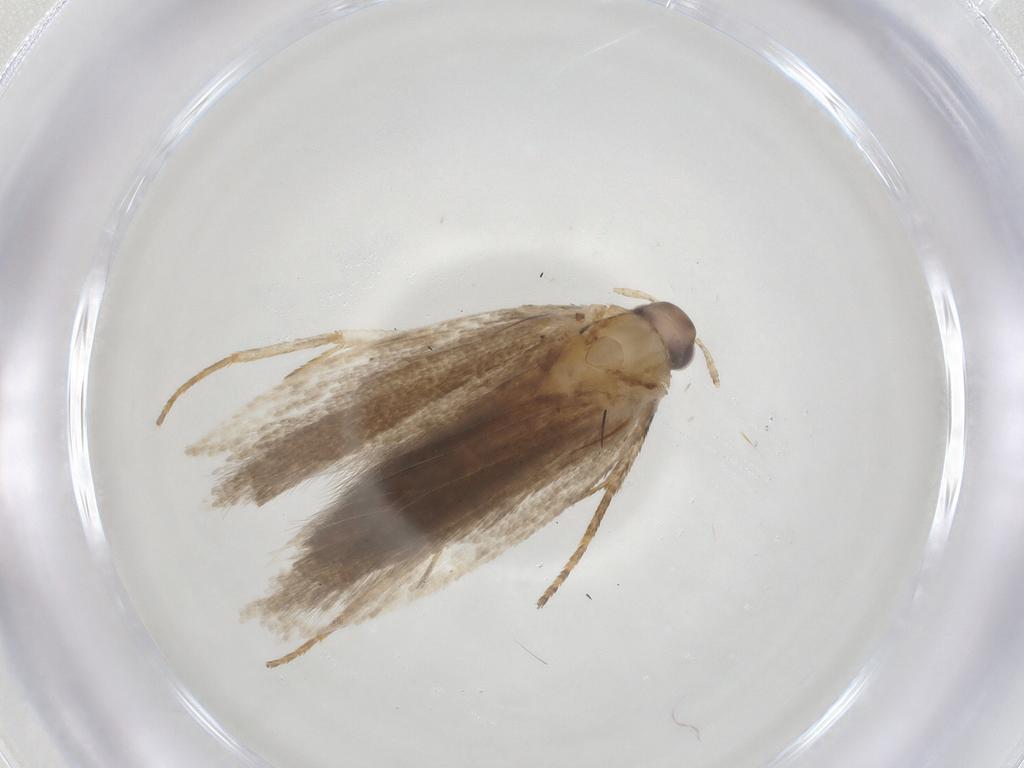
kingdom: Animalia
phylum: Arthropoda
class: Insecta
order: Lepidoptera
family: Gelechiidae
